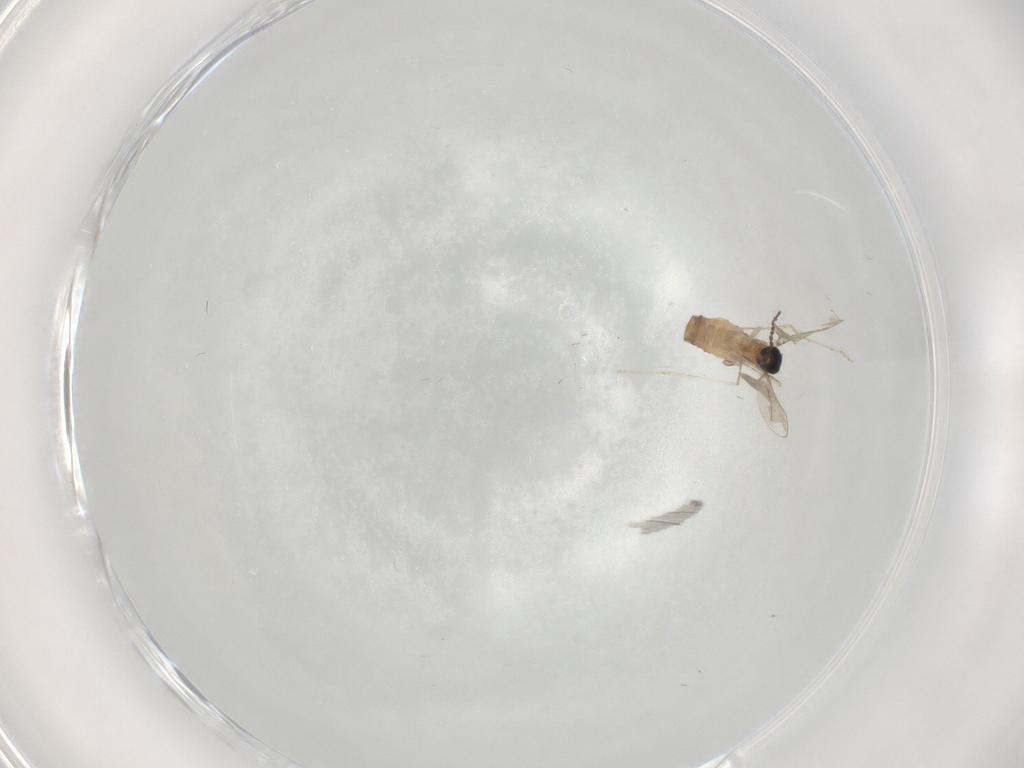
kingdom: Animalia
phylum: Arthropoda
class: Insecta
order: Diptera
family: Cecidomyiidae
